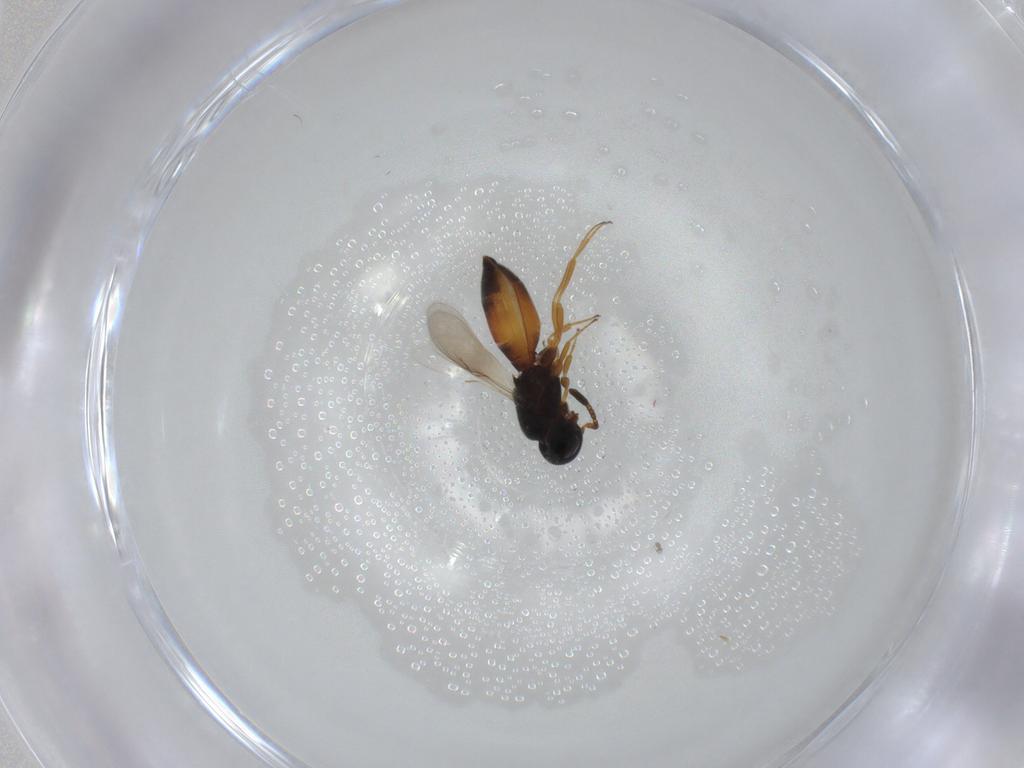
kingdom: Animalia
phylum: Arthropoda
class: Insecta
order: Hymenoptera
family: Scelionidae
